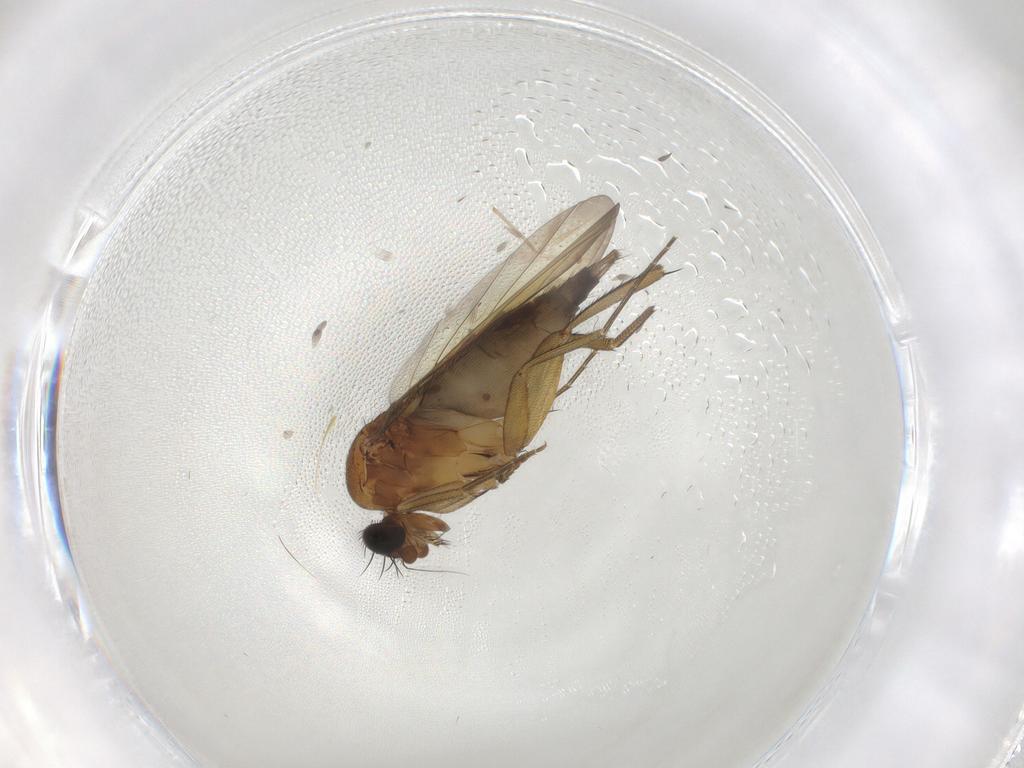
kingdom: Animalia
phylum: Arthropoda
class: Insecta
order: Diptera
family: Phoridae
